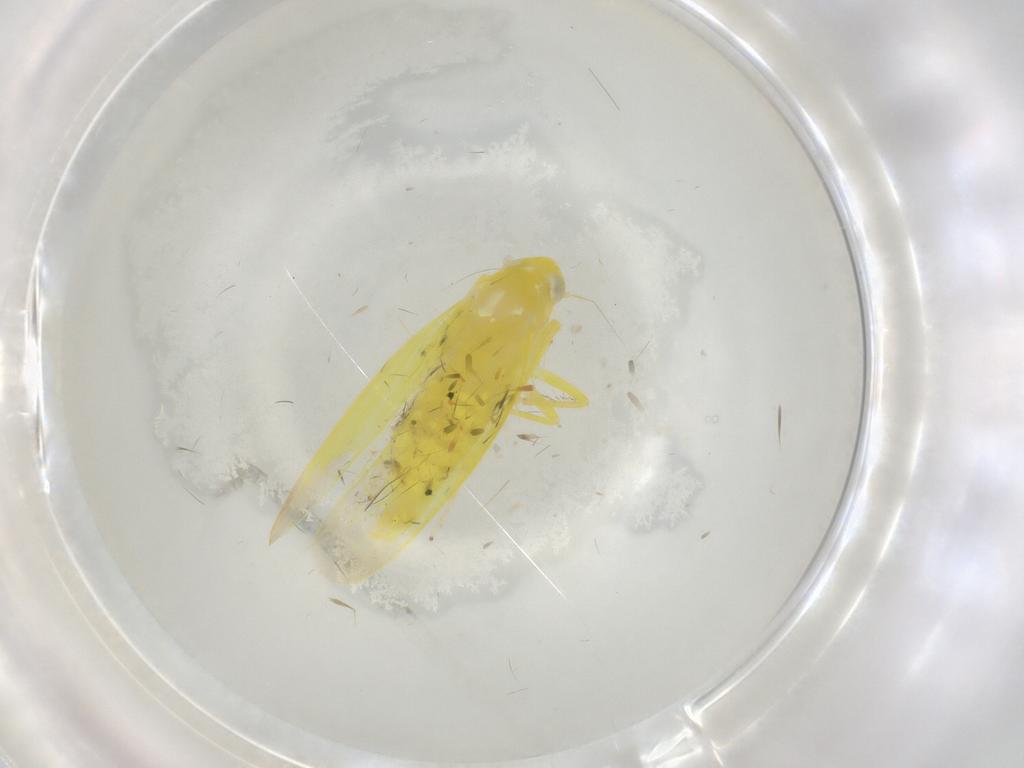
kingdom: Animalia
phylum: Arthropoda
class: Insecta
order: Hemiptera
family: Cicadellidae
